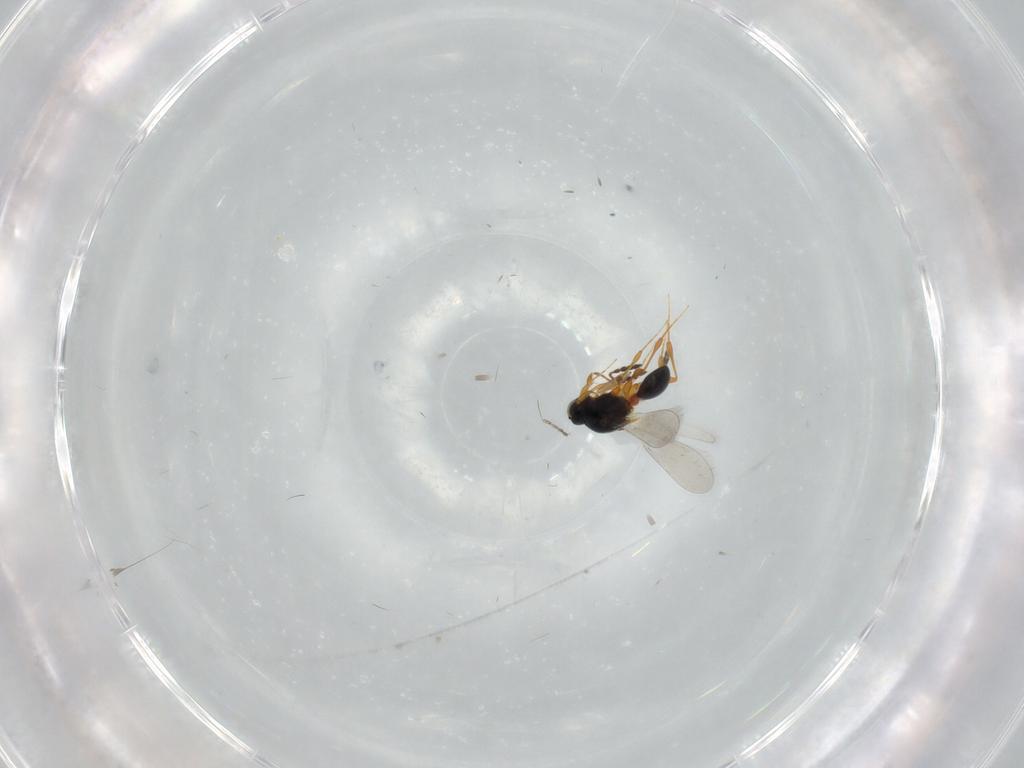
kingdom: Animalia
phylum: Arthropoda
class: Insecta
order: Hymenoptera
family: Platygastridae
